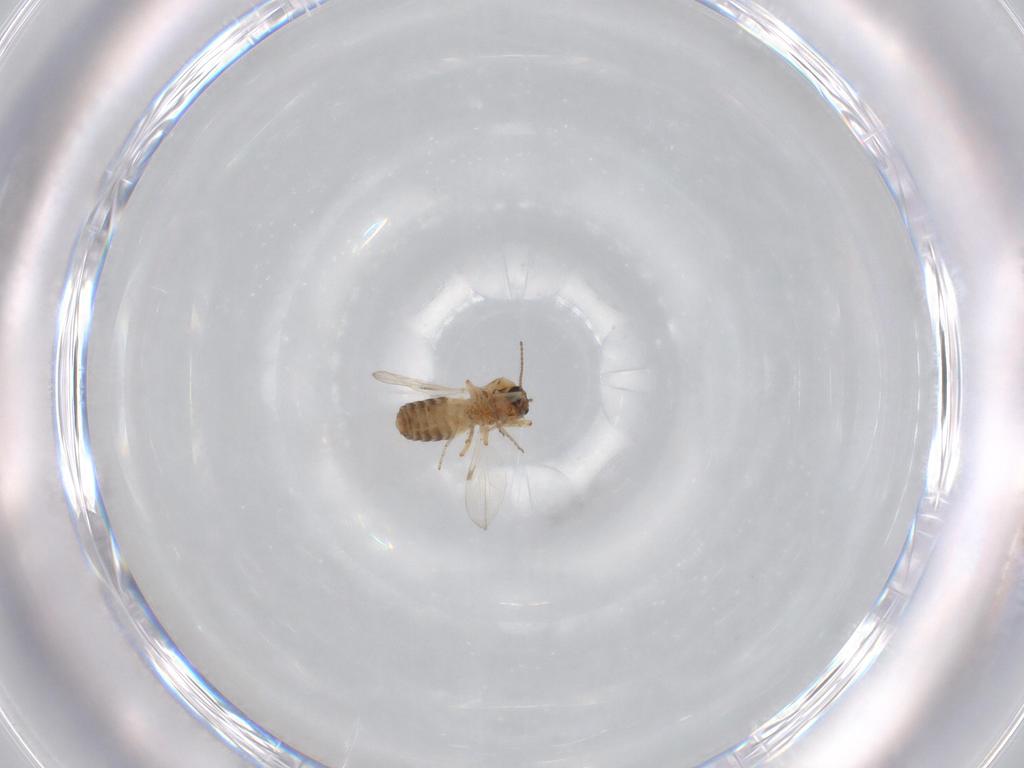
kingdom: Animalia
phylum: Arthropoda
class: Insecta
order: Diptera
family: Ceratopogonidae
